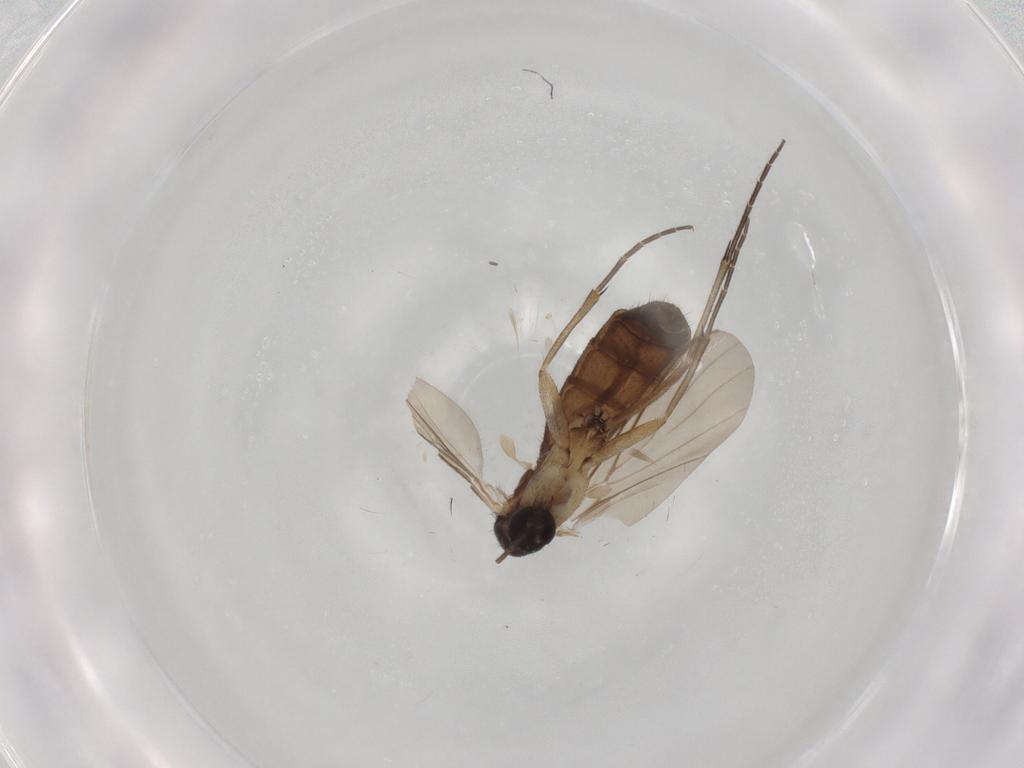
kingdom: Animalia
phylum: Arthropoda
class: Insecta
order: Diptera
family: Keroplatidae
